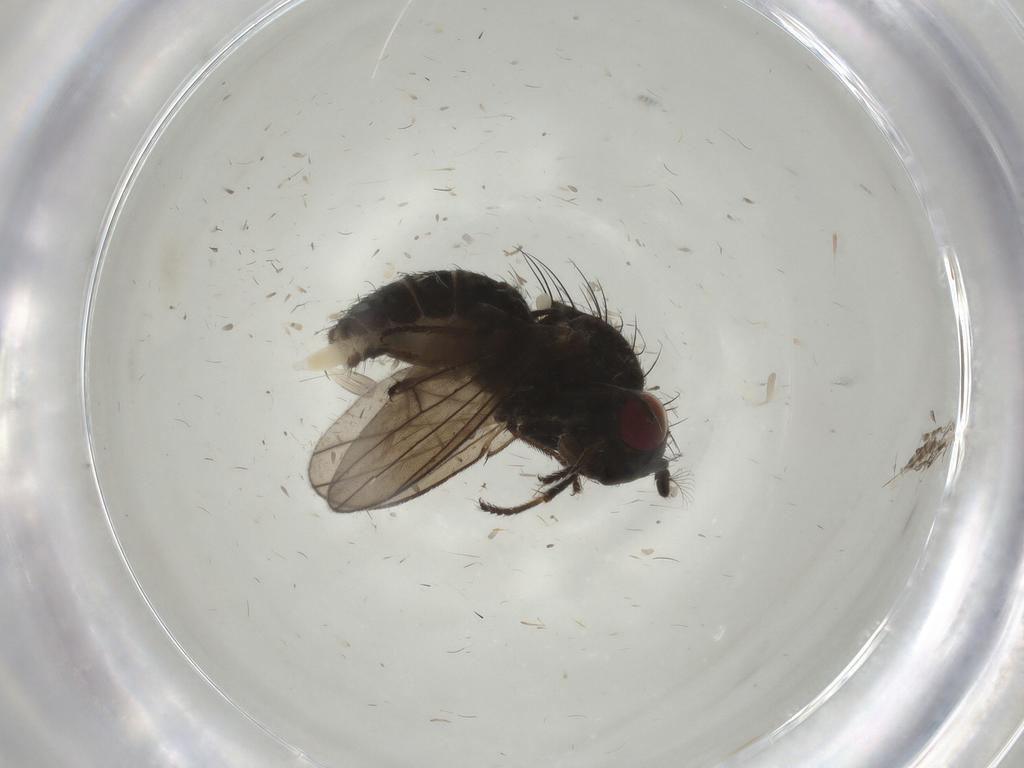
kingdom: Animalia
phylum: Arthropoda
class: Insecta
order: Diptera
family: Ephydridae
